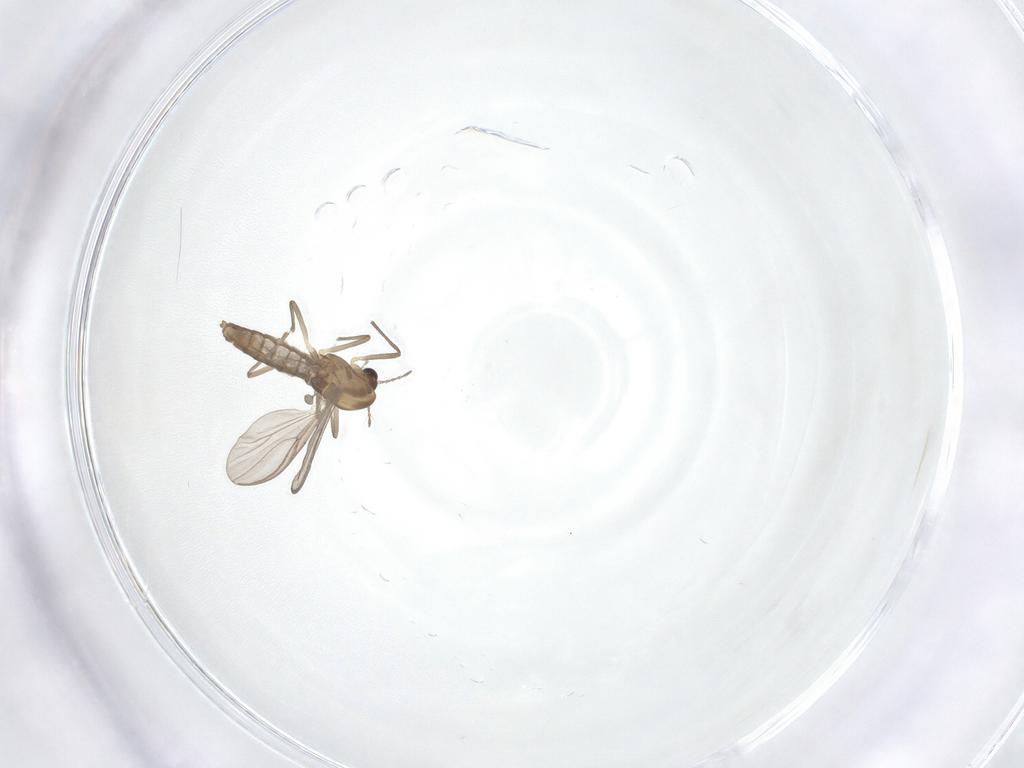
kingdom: Animalia
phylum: Arthropoda
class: Insecta
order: Diptera
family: Chironomidae
